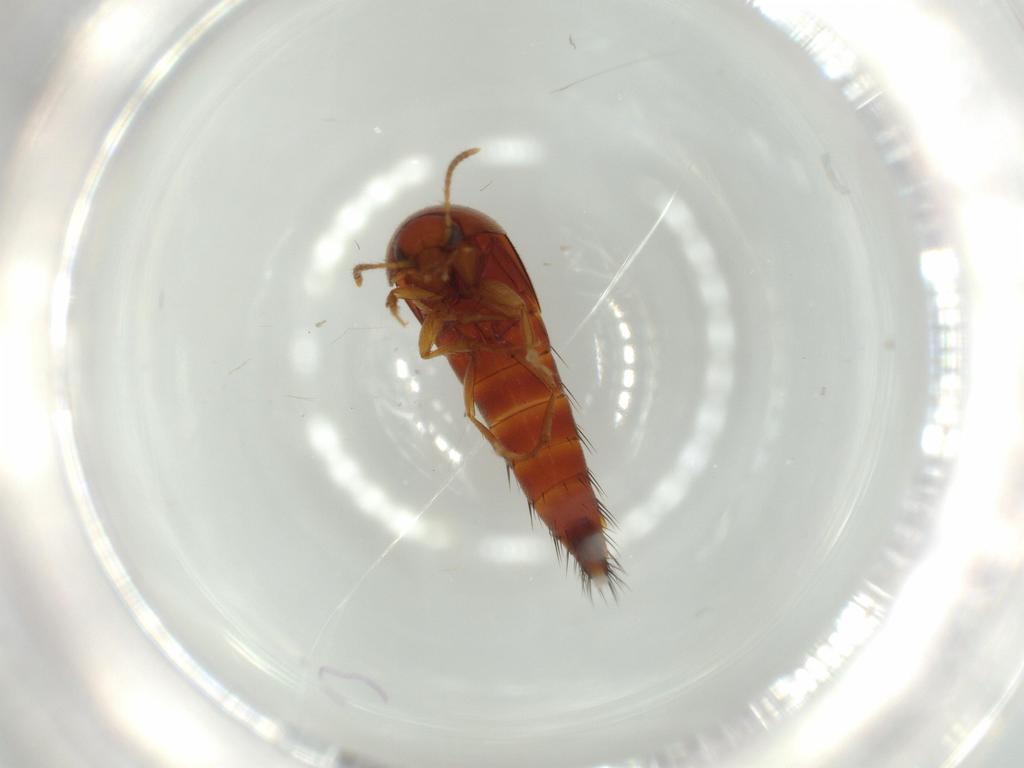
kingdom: Animalia
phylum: Arthropoda
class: Insecta
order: Coleoptera
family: Staphylinidae
